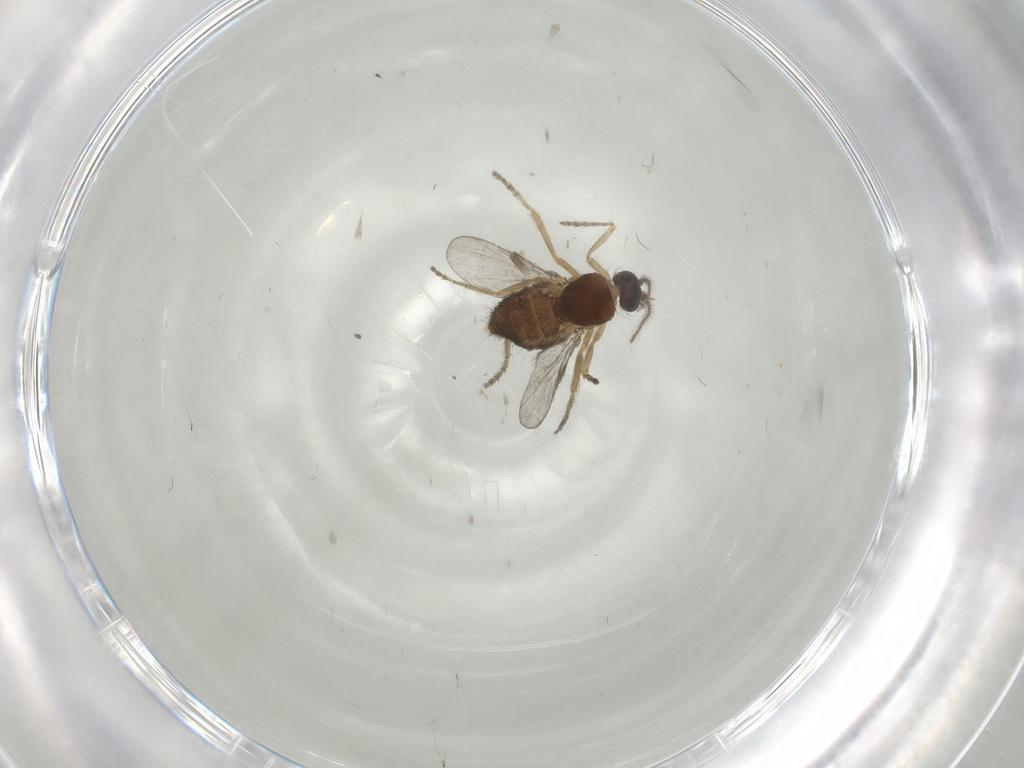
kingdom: Animalia
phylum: Arthropoda
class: Insecta
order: Diptera
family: Ceratopogonidae
